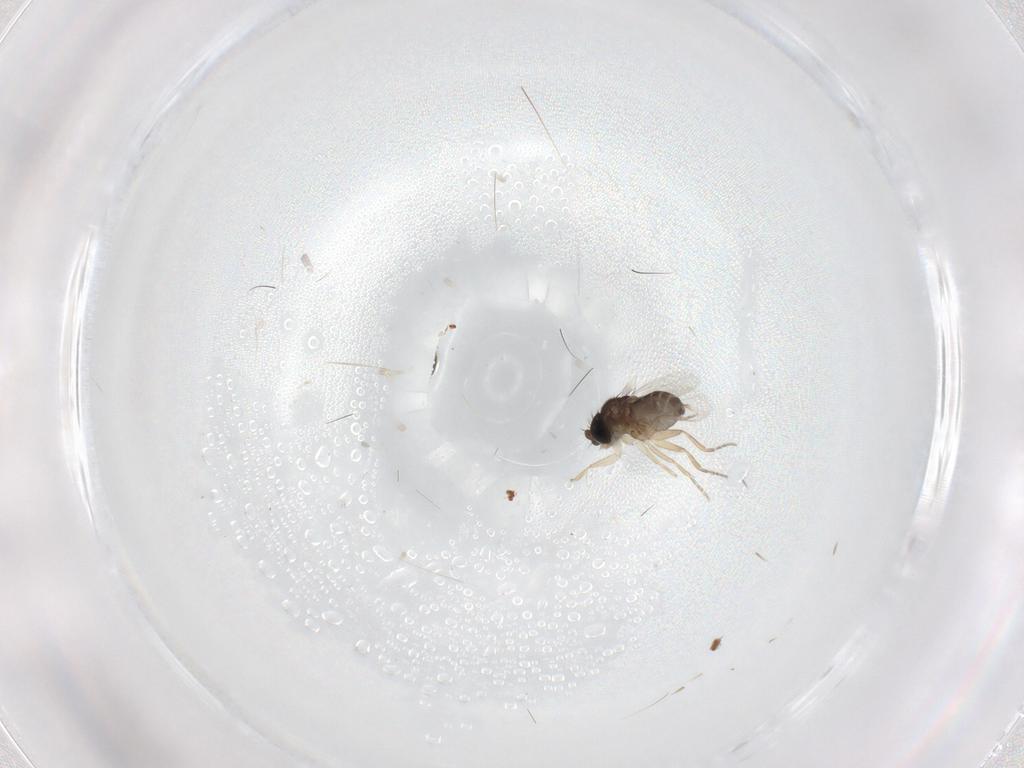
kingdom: Animalia
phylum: Arthropoda
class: Insecta
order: Diptera
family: Phoridae
